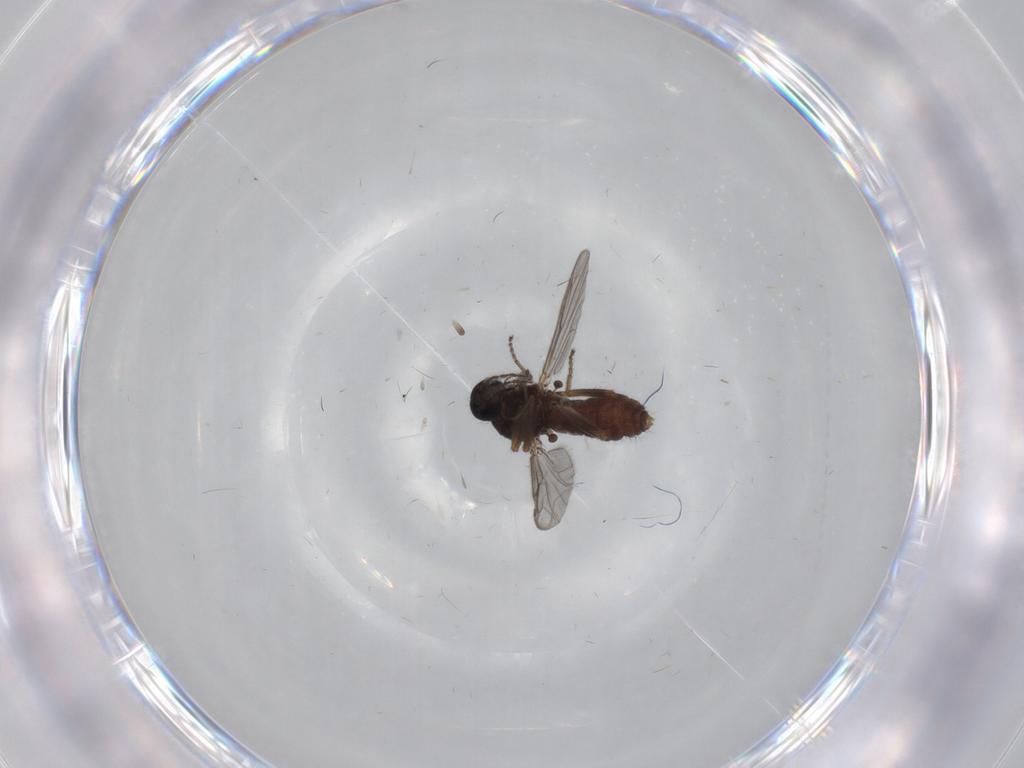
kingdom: Animalia
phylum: Arthropoda
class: Insecta
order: Diptera
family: Ceratopogonidae
